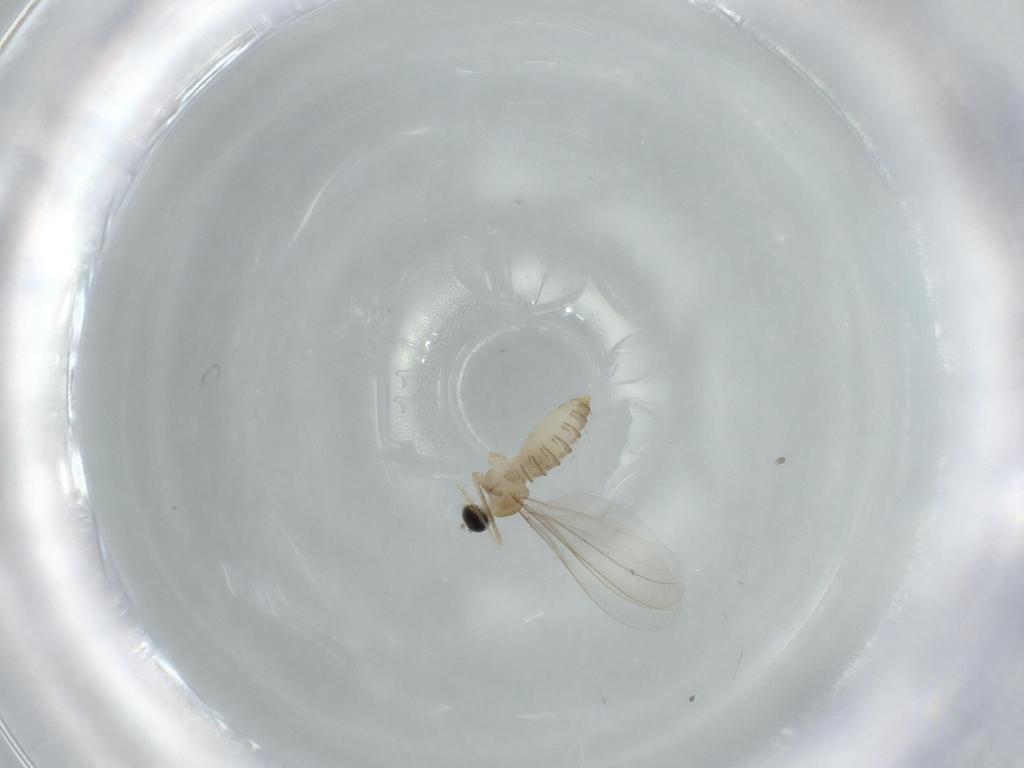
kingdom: Animalia
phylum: Arthropoda
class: Insecta
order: Diptera
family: Cecidomyiidae
